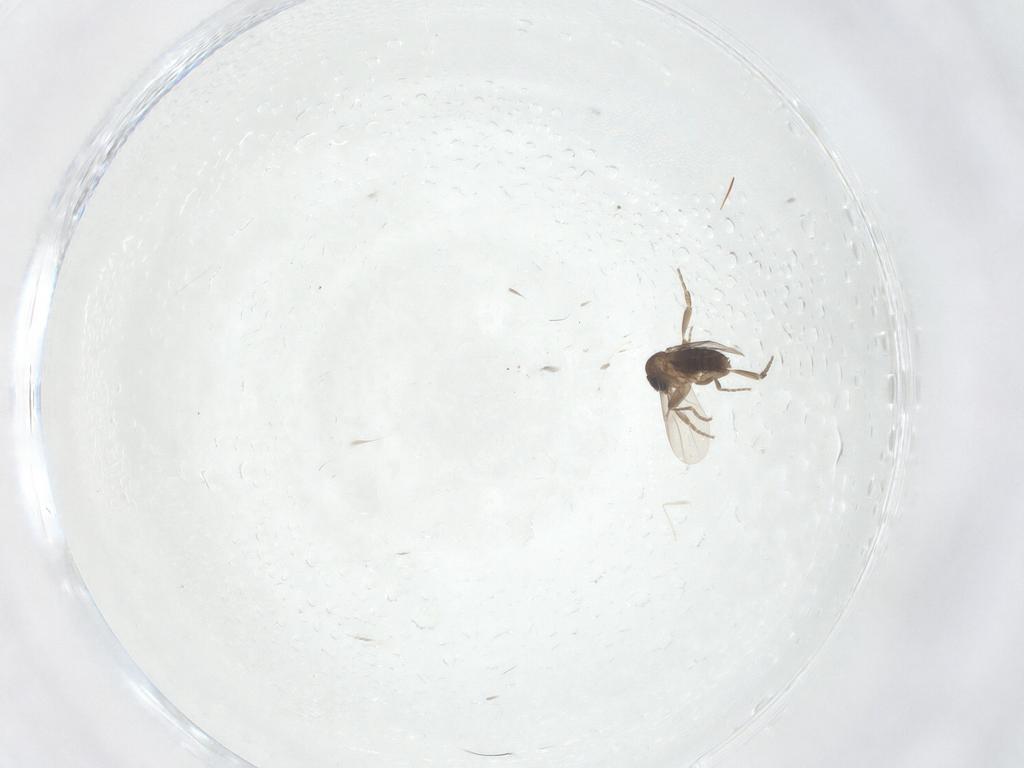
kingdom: Animalia
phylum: Arthropoda
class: Insecta
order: Diptera
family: Cecidomyiidae
